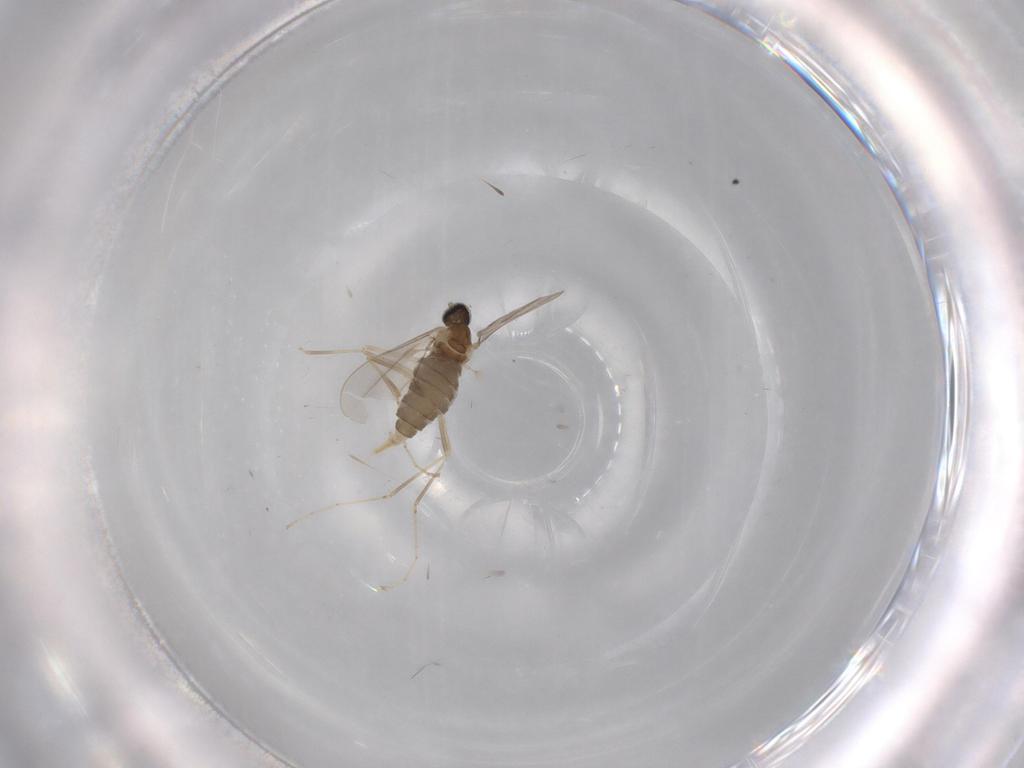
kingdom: Animalia
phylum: Arthropoda
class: Insecta
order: Diptera
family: Cecidomyiidae
